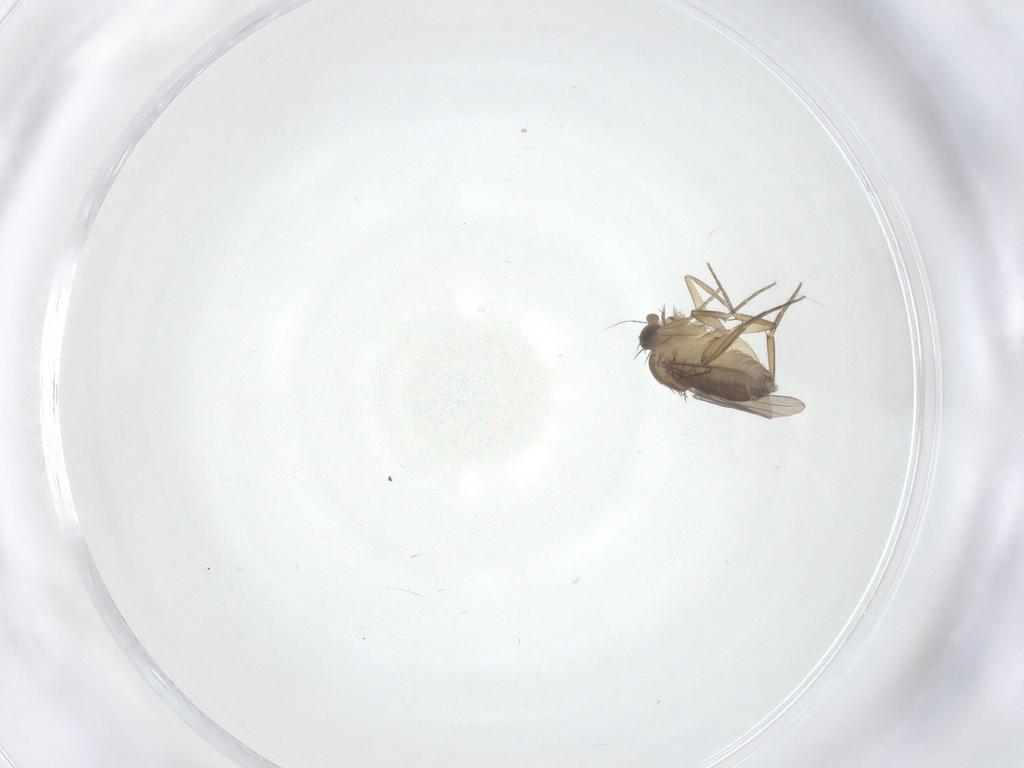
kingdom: Animalia
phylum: Arthropoda
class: Insecta
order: Diptera
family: Phoridae
